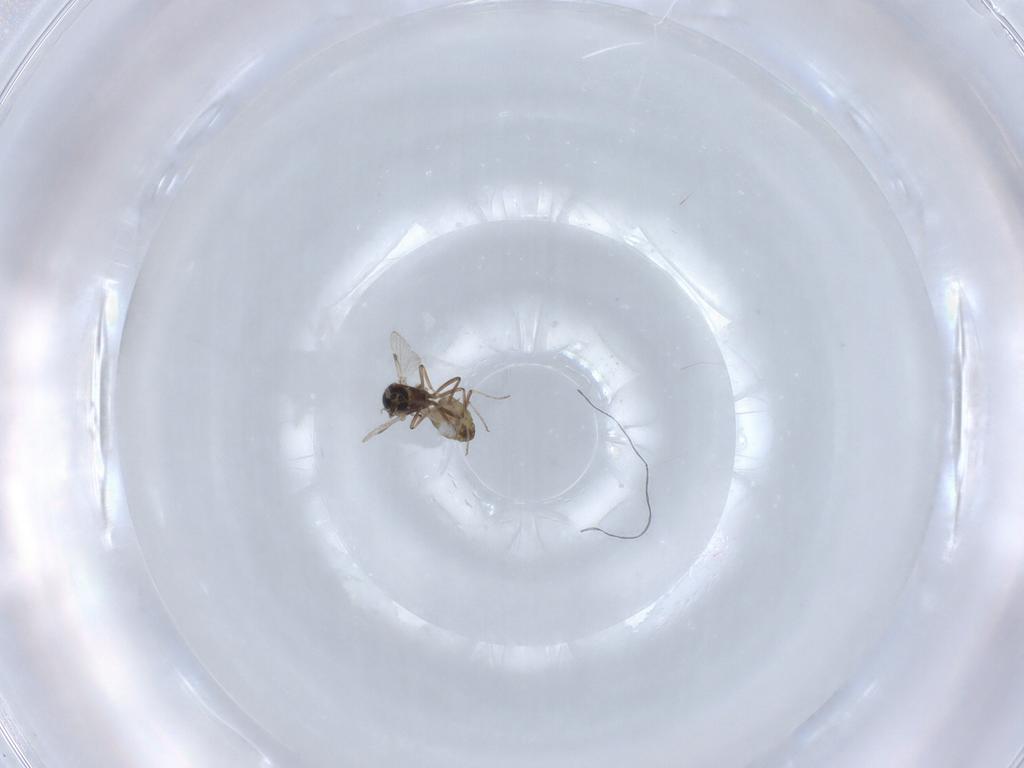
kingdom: Animalia
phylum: Arthropoda
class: Insecta
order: Diptera
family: Ceratopogonidae
